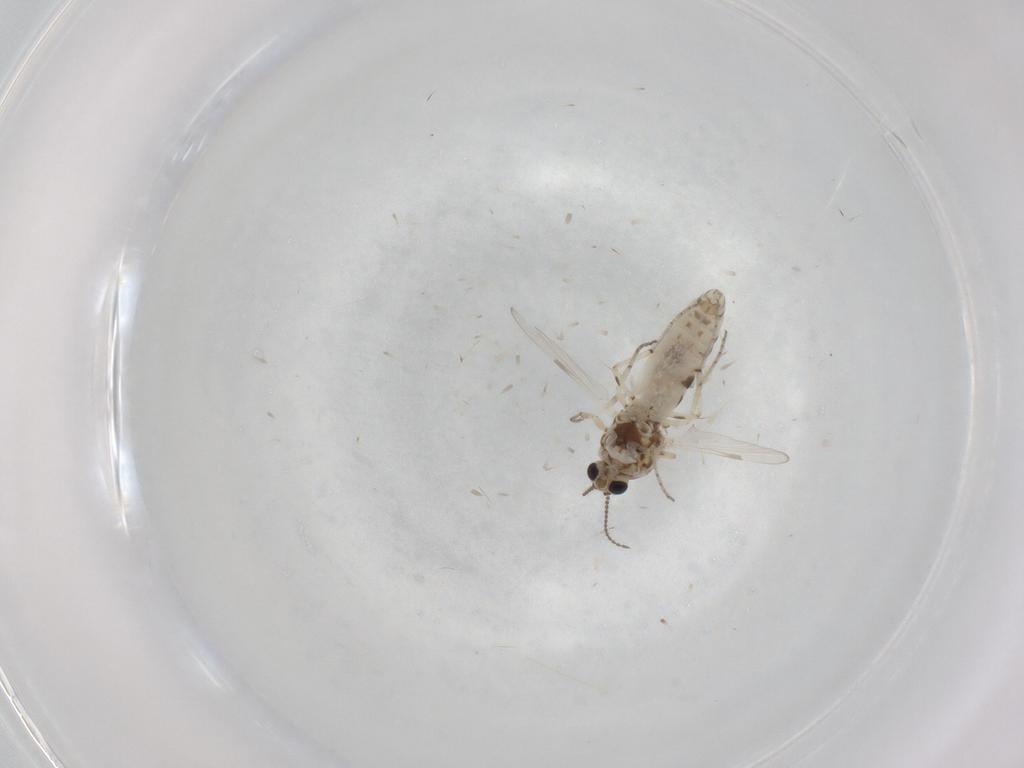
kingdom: Animalia
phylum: Arthropoda
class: Insecta
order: Diptera
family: Ceratopogonidae
